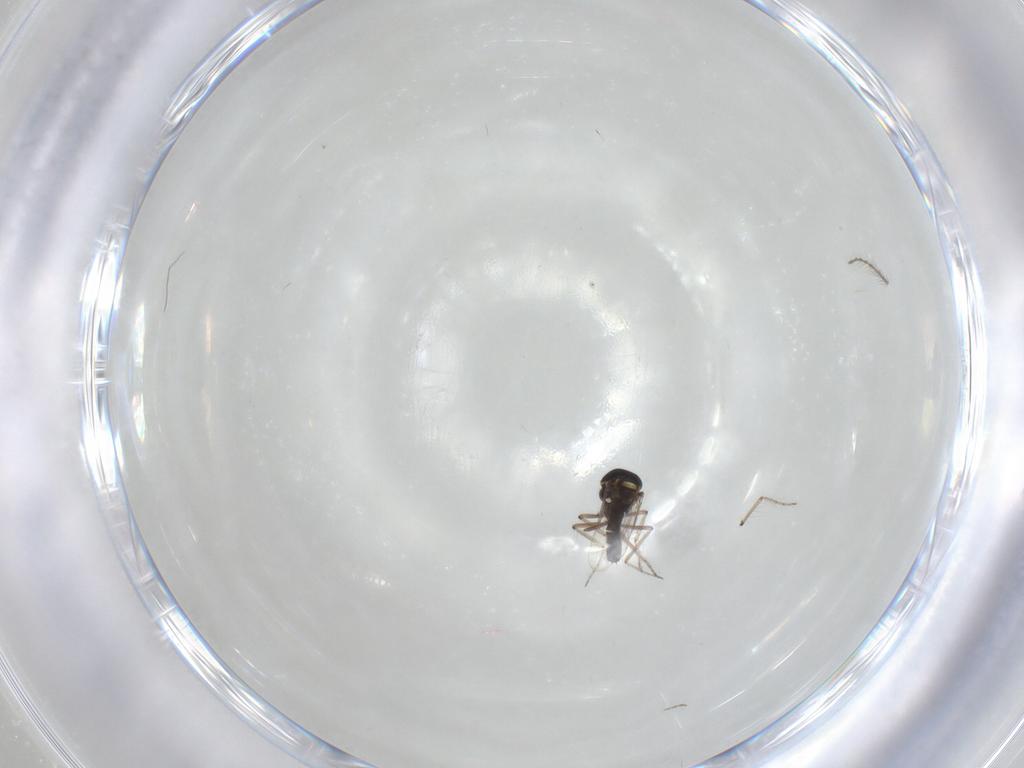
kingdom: Animalia
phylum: Arthropoda
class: Insecta
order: Diptera
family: Ceratopogonidae
